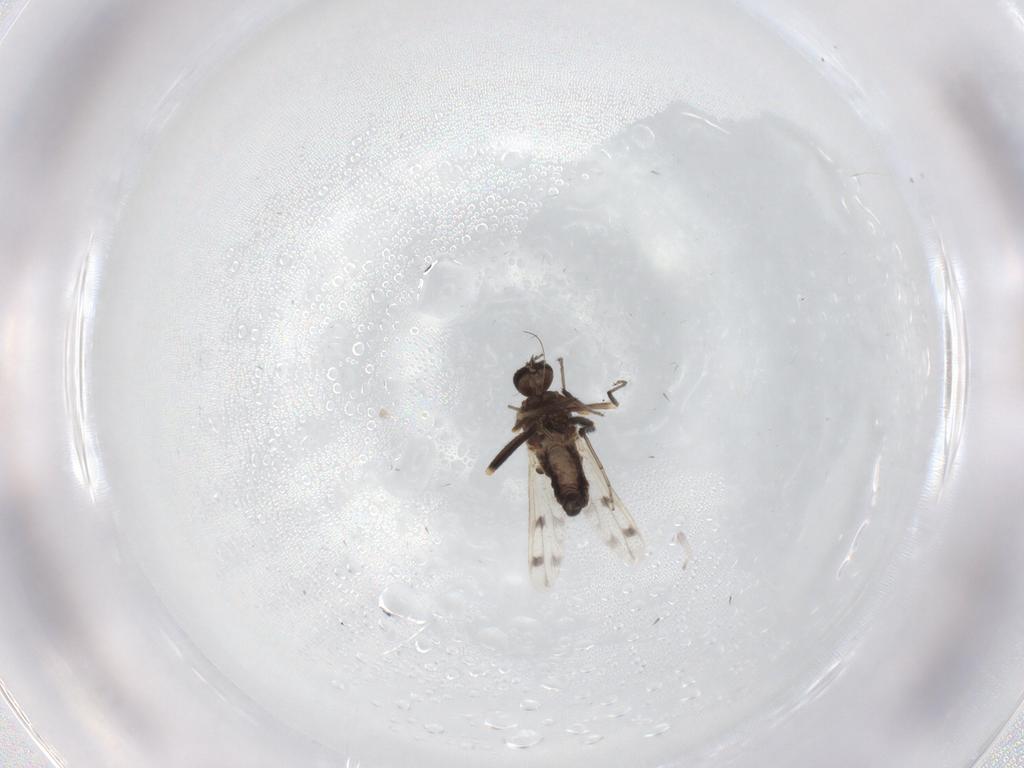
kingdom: Animalia
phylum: Arthropoda
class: Insecta
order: Diptera
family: Ceratopogonidae
